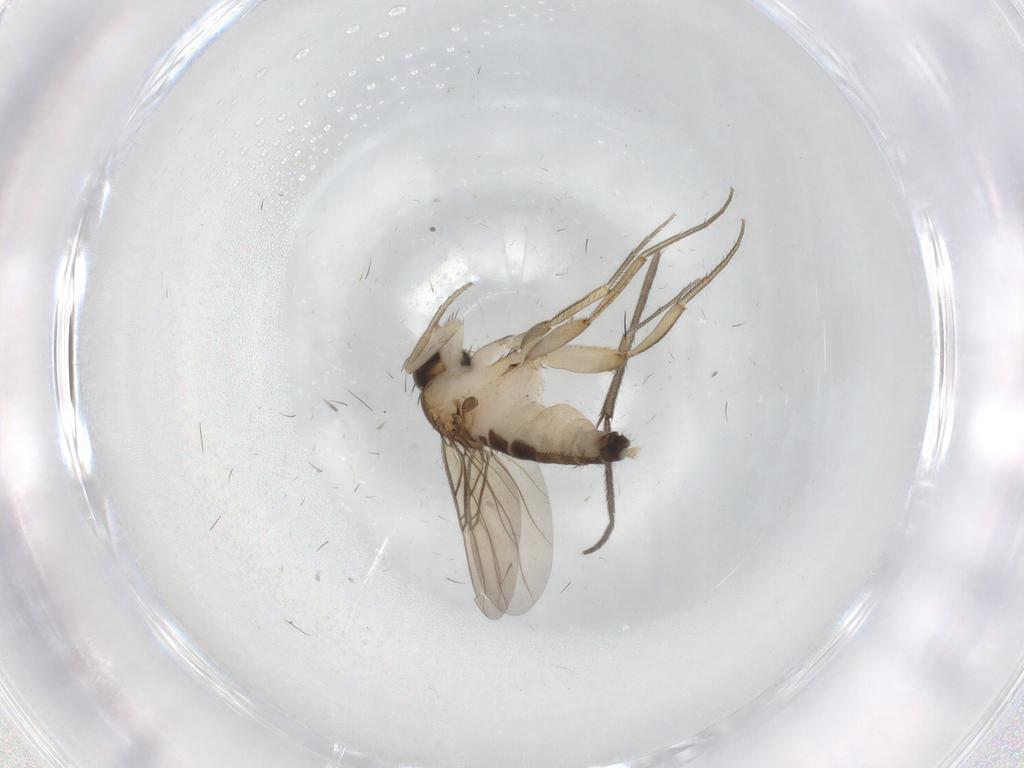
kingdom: Animalia
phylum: Arthropoda
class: Insecta
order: Diptera
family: Phoridae
